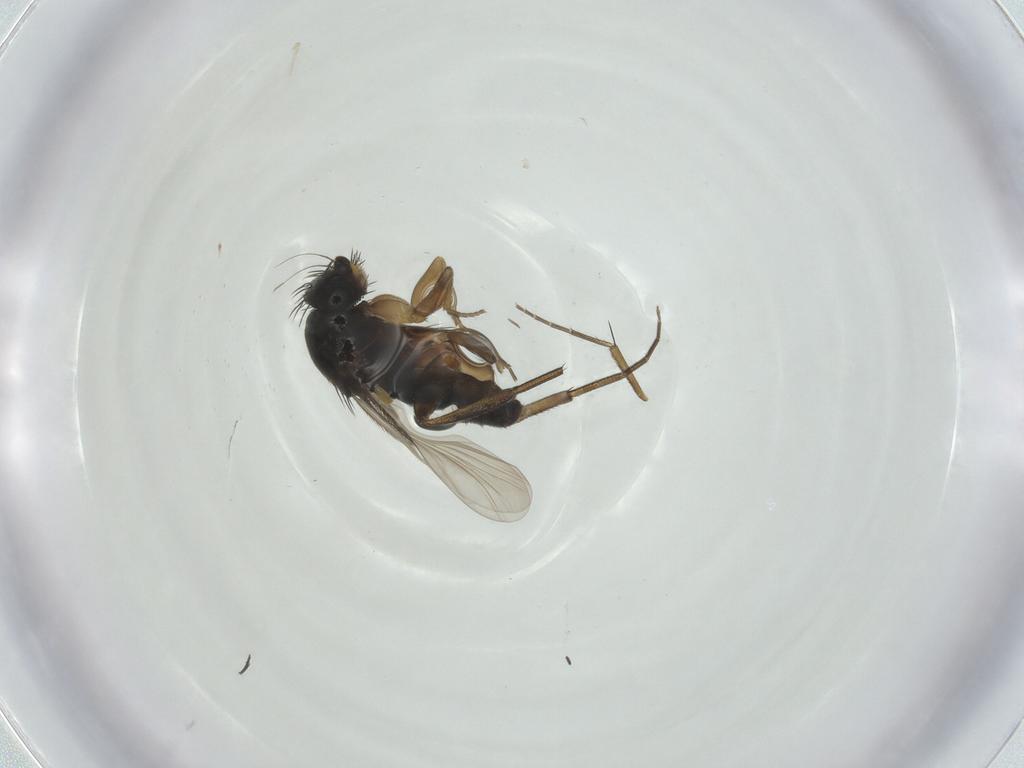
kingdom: Animalia
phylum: Arthropoda
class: Insecta
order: Diptera
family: Phoridae
